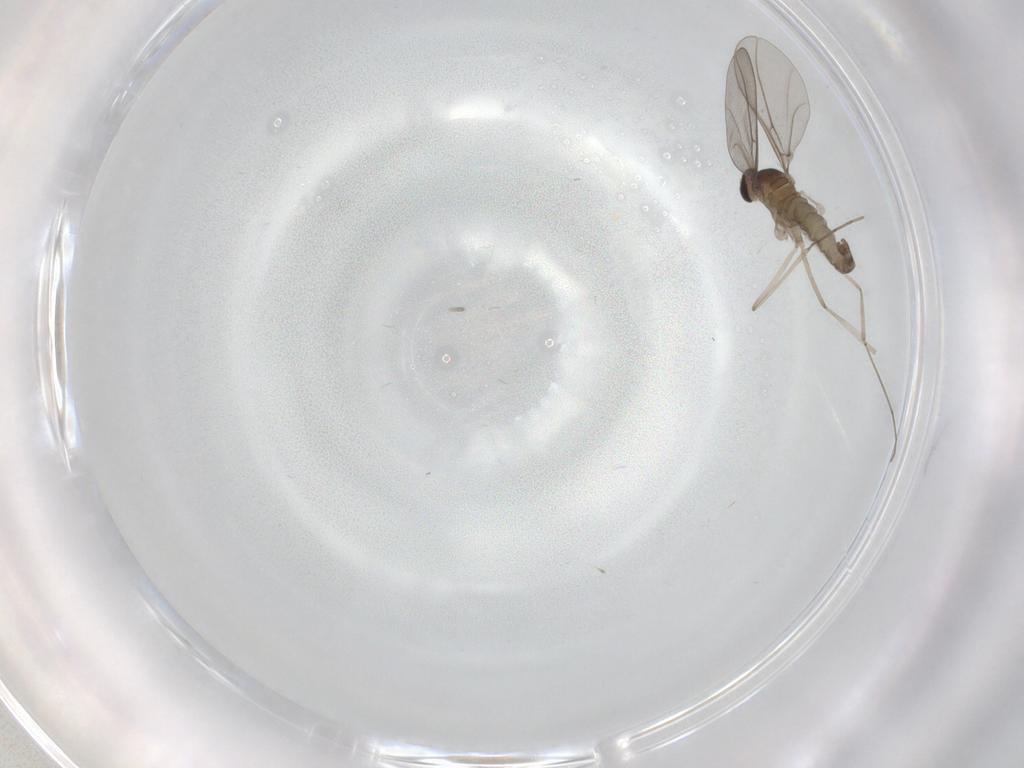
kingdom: Animalia
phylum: Arthropoda
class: Insecta
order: Diptera
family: Cecidomyiidae
